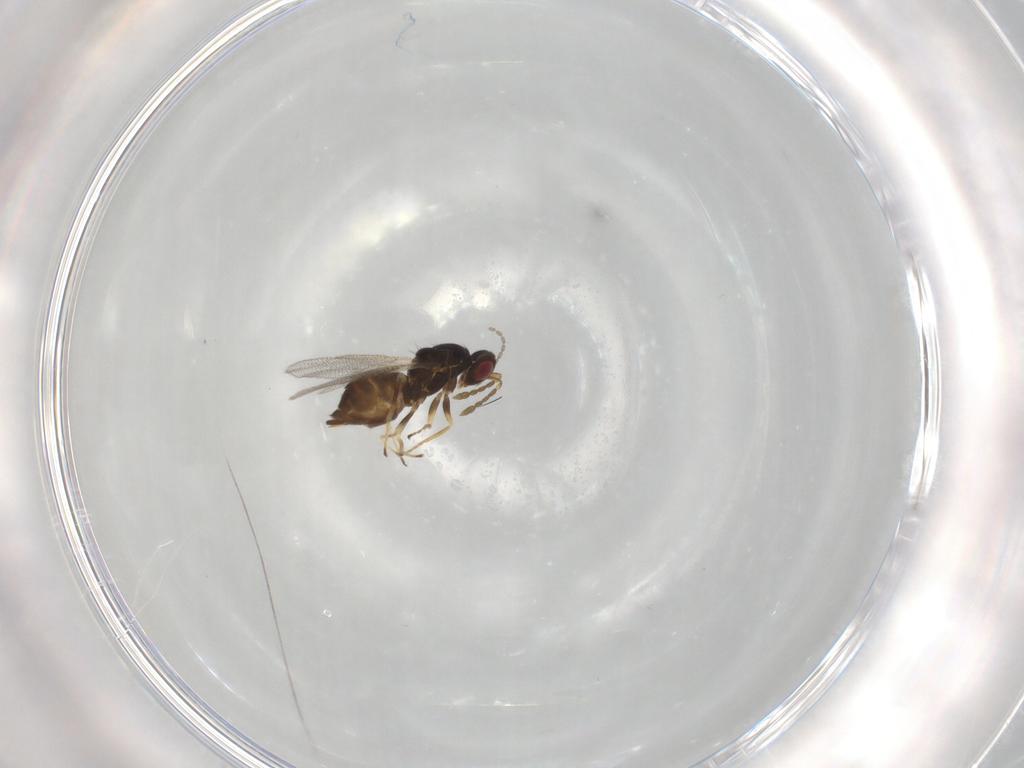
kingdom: Animalia
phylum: Arthropoda
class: Insecta
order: Hymenoptera
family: Eulophidae
